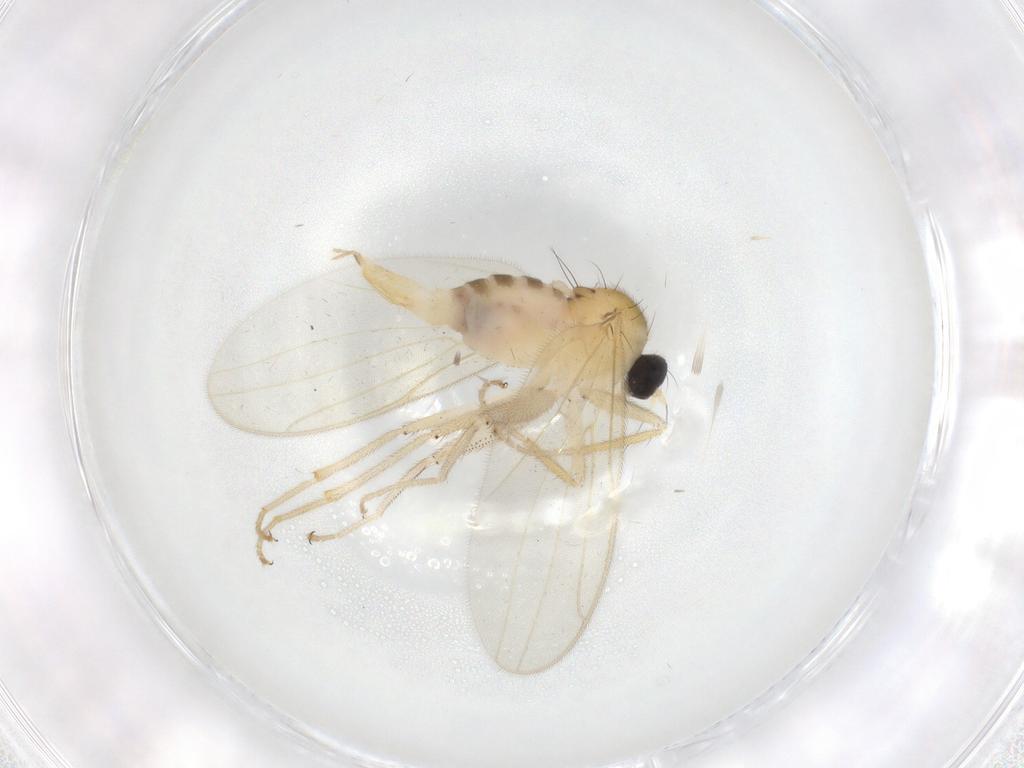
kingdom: Animalia
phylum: Arthropoda
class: Insecta
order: Diptera
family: Hybotidae
